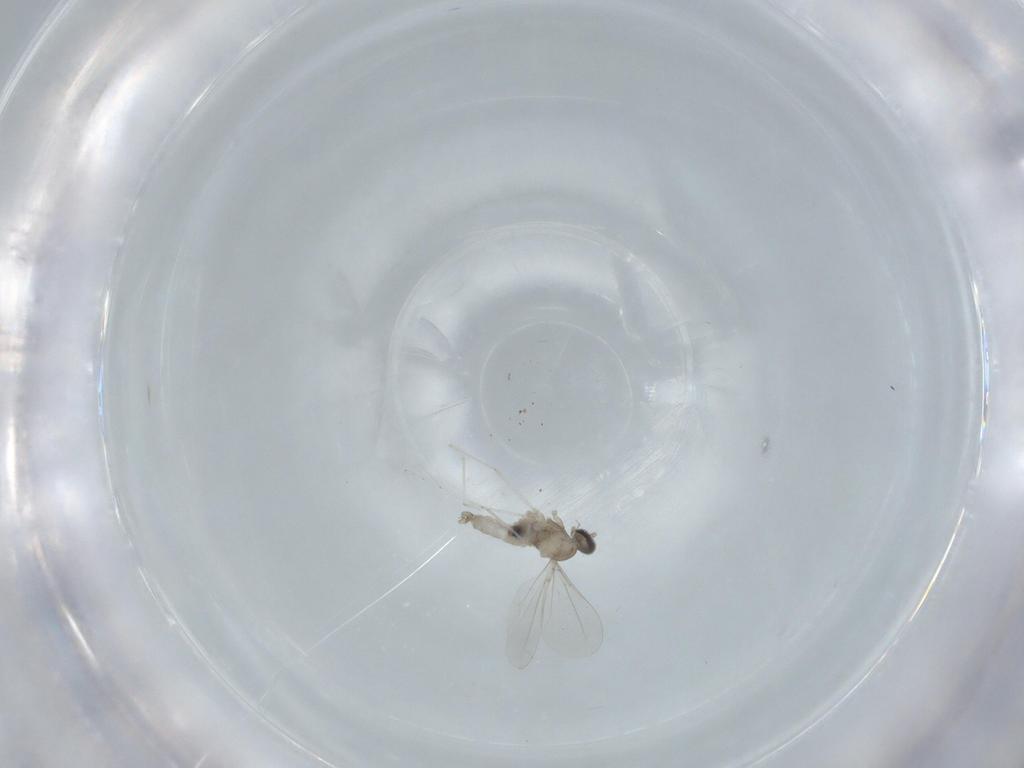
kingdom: Animalia
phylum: Arthropoda
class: Insecta
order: Diptera
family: Cecidomyiidae
